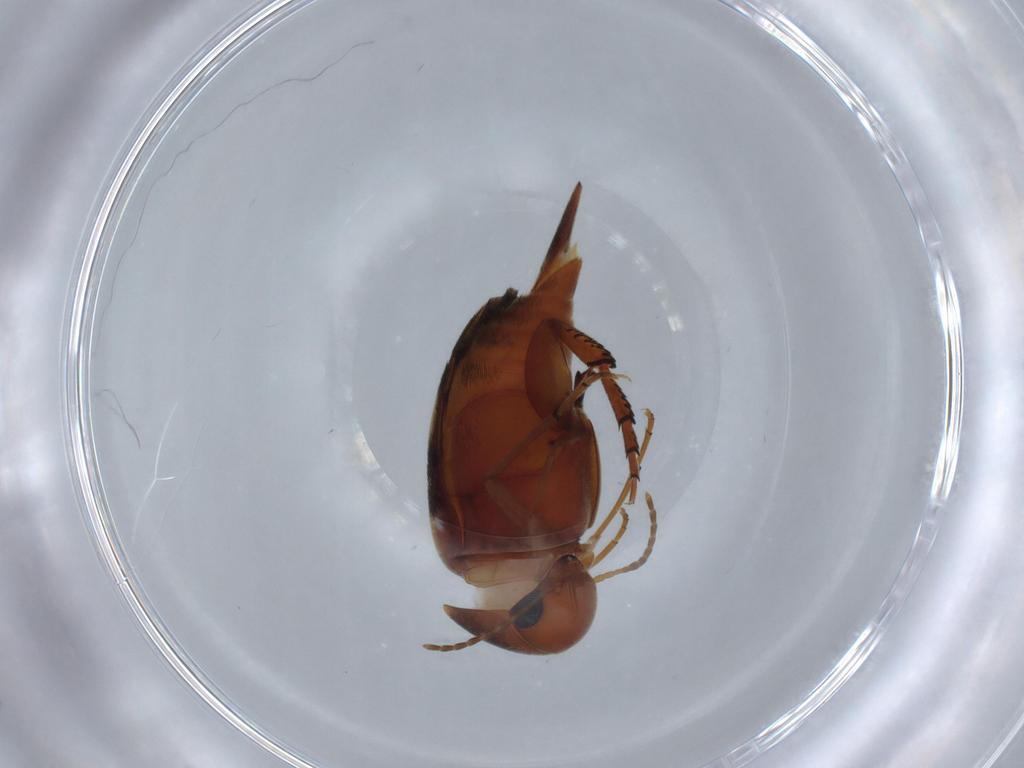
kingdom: Animalia
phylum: Arthropoda
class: Insecta
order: Coleoptera
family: Mordellidae
